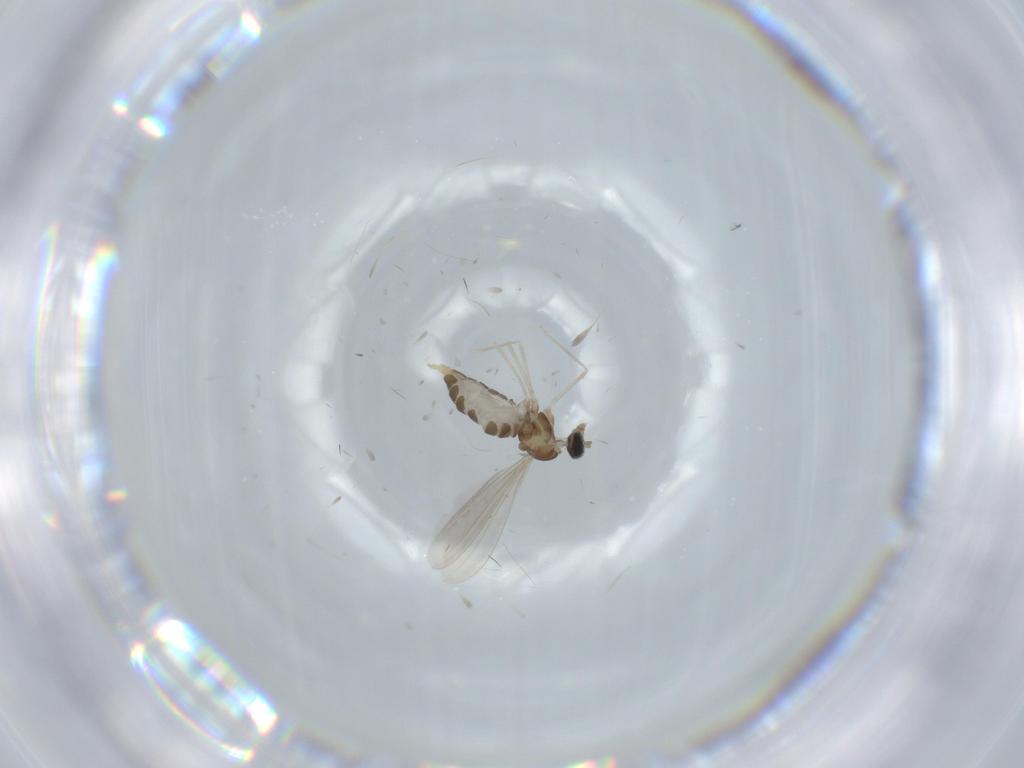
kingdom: Animalia
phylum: Arthropoda
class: Insecta
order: Diptera
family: Cecidomyiidae
